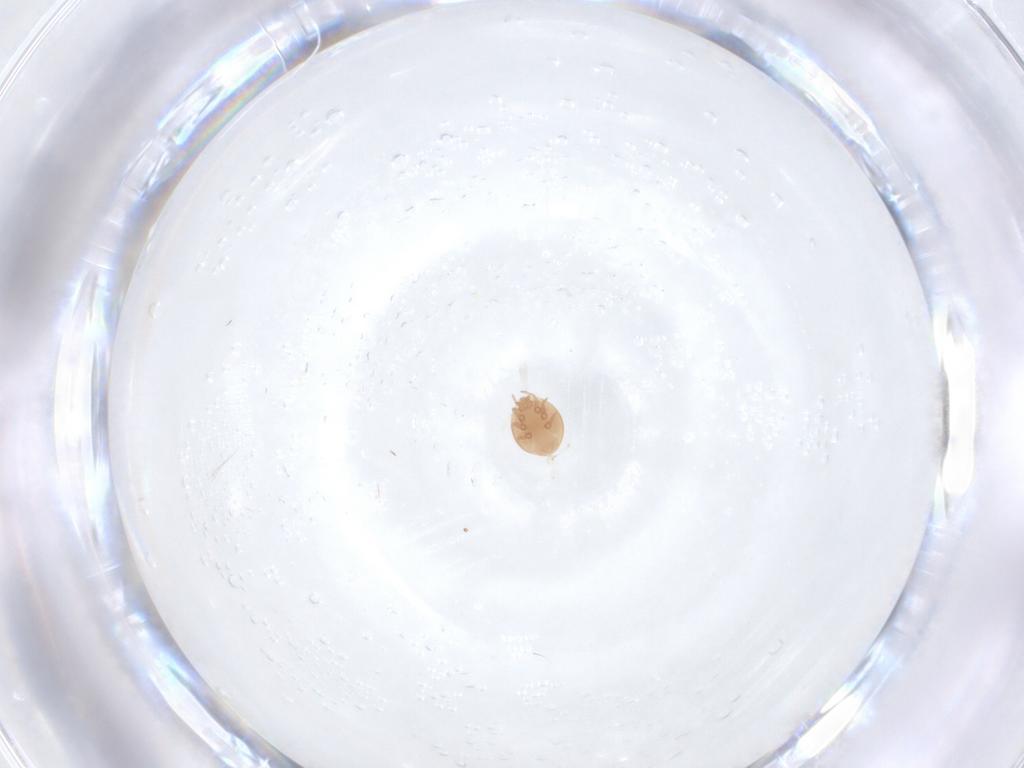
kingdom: Animalia
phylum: Arthropoda
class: Arachnida
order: Mesostigmata
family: Trematuridae
